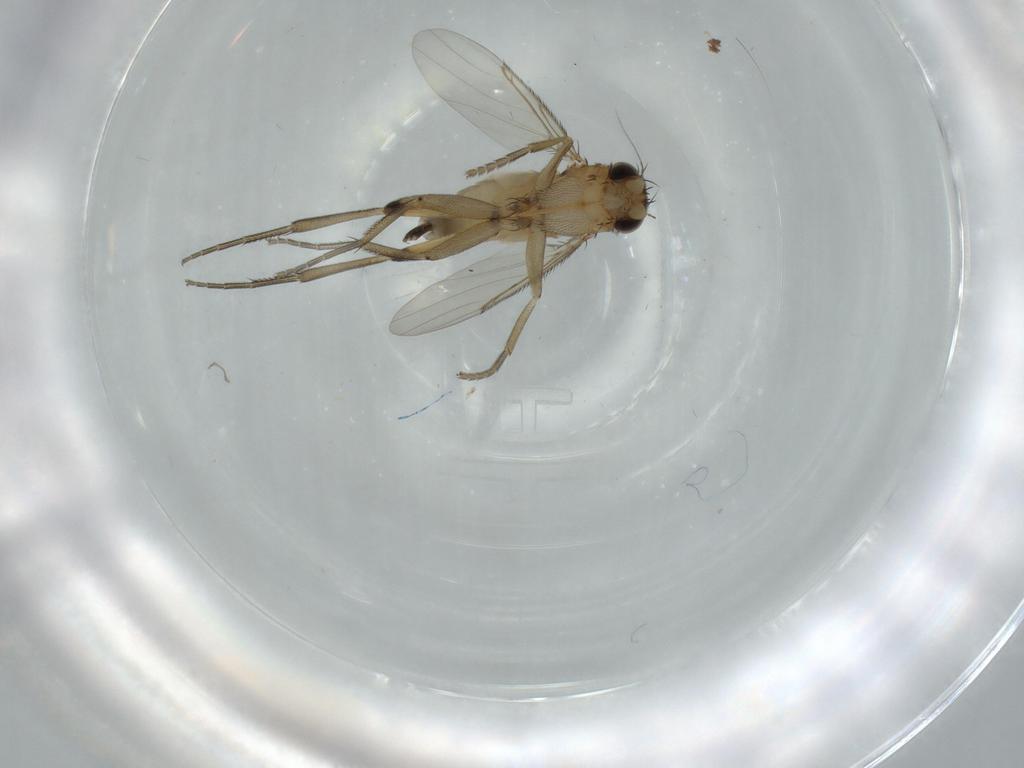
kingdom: Animalia
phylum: Arthropoda
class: Insecta
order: Diptera
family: Phoridae
